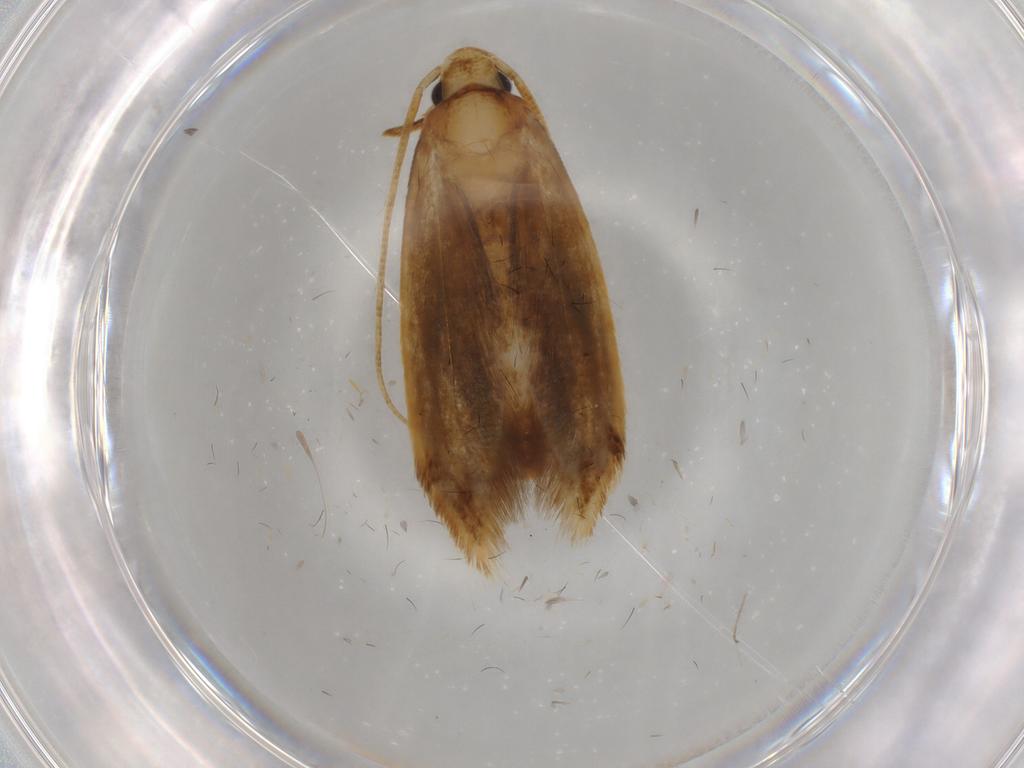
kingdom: Animalia
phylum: Arthropoda
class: Insecta
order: Lepidoptera
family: Tineidae
